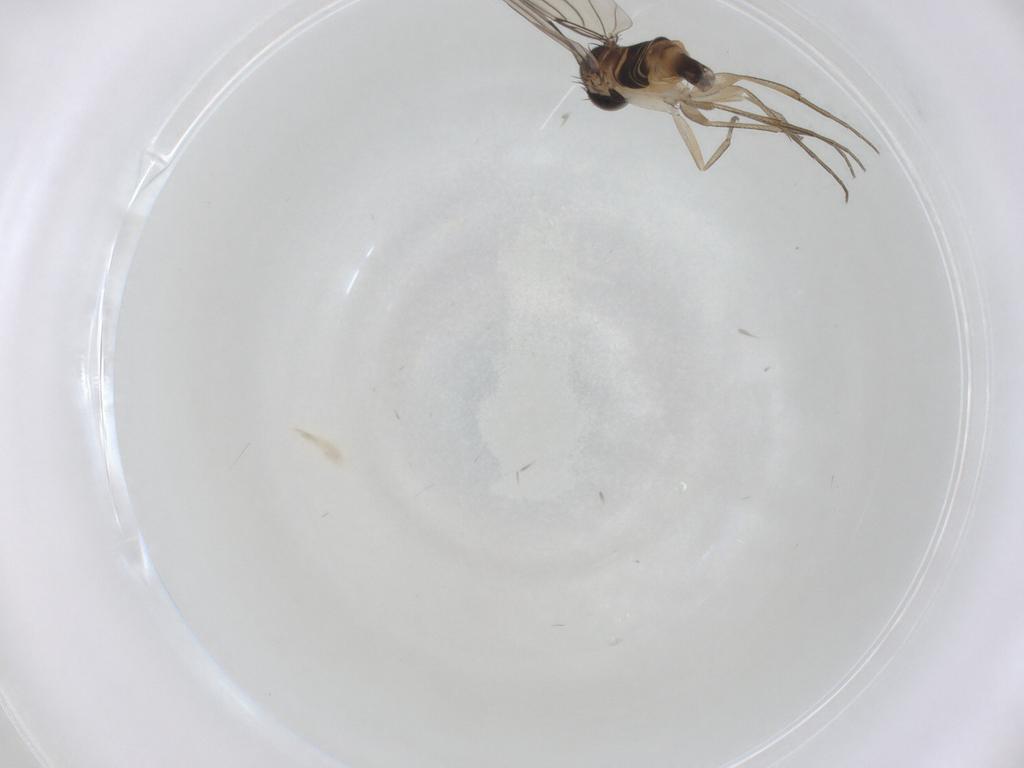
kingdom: Animalia
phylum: Arthropoda
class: Insecta
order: Diptera
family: Phoridae
